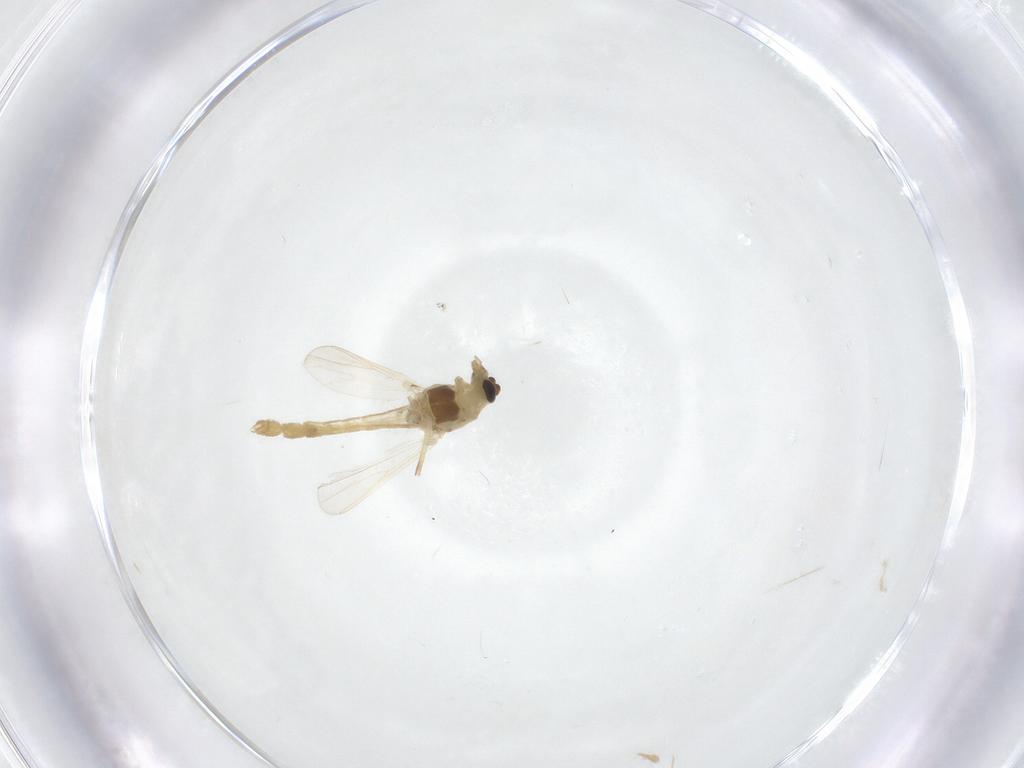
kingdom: Animalia
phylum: Arthropoda
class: Insecta
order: Diptera
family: Chironomidae
